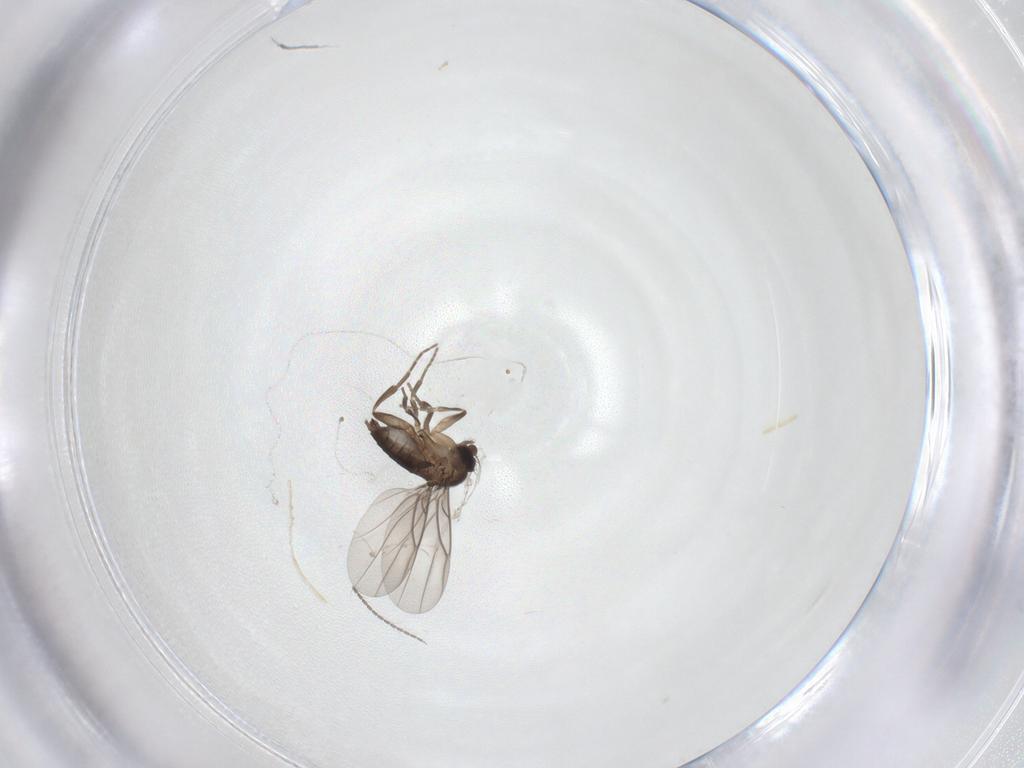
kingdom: Animalia
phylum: Arthropoda
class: Insecta
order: Diptera
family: Cecidomyiidae
